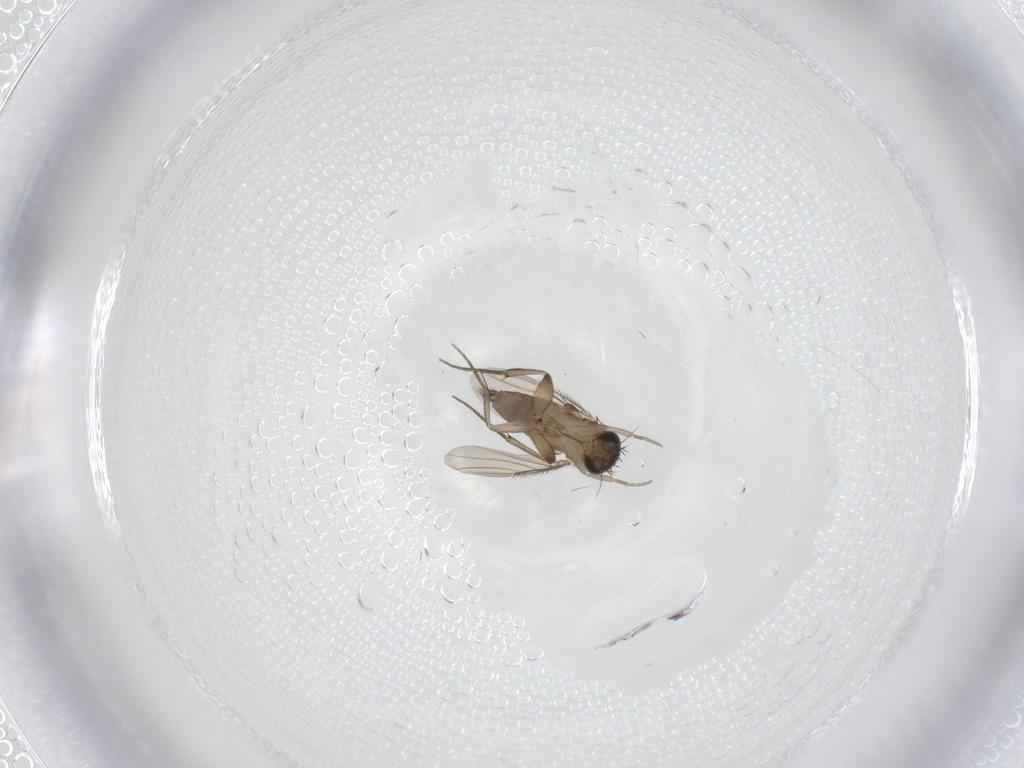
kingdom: Animalia
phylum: Arthropoda
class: Insecta
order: Diptera
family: Phoridae
